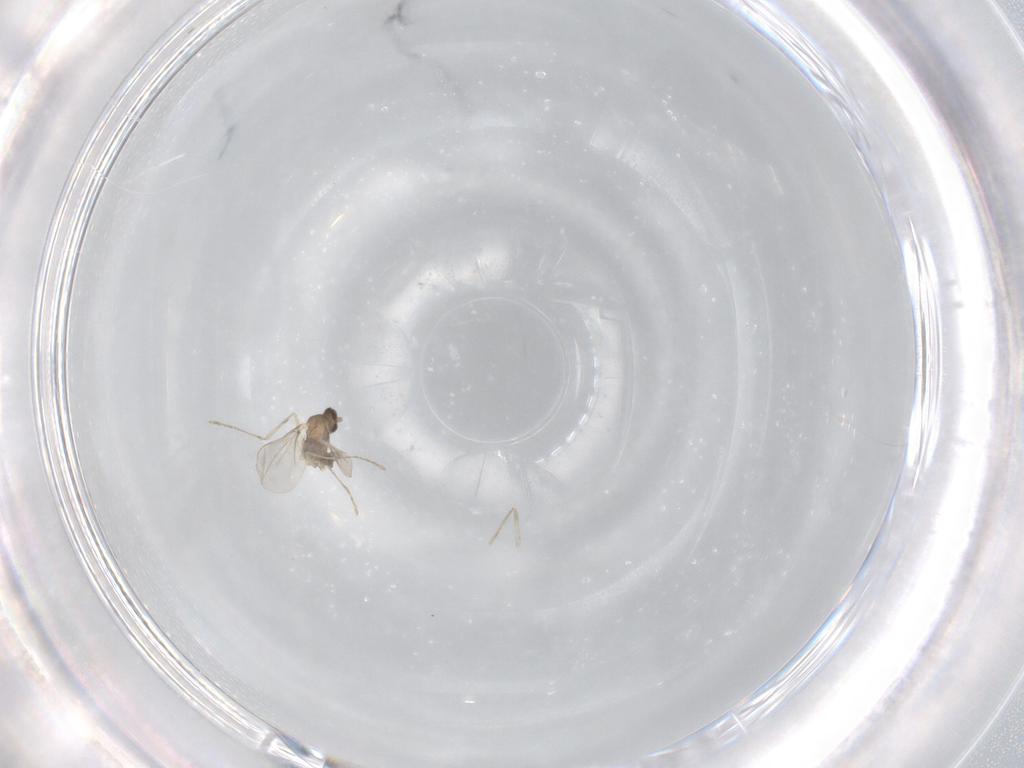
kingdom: Animalia
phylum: Arthropoda
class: Insecta
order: Diptera
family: Cecidomyiidae
